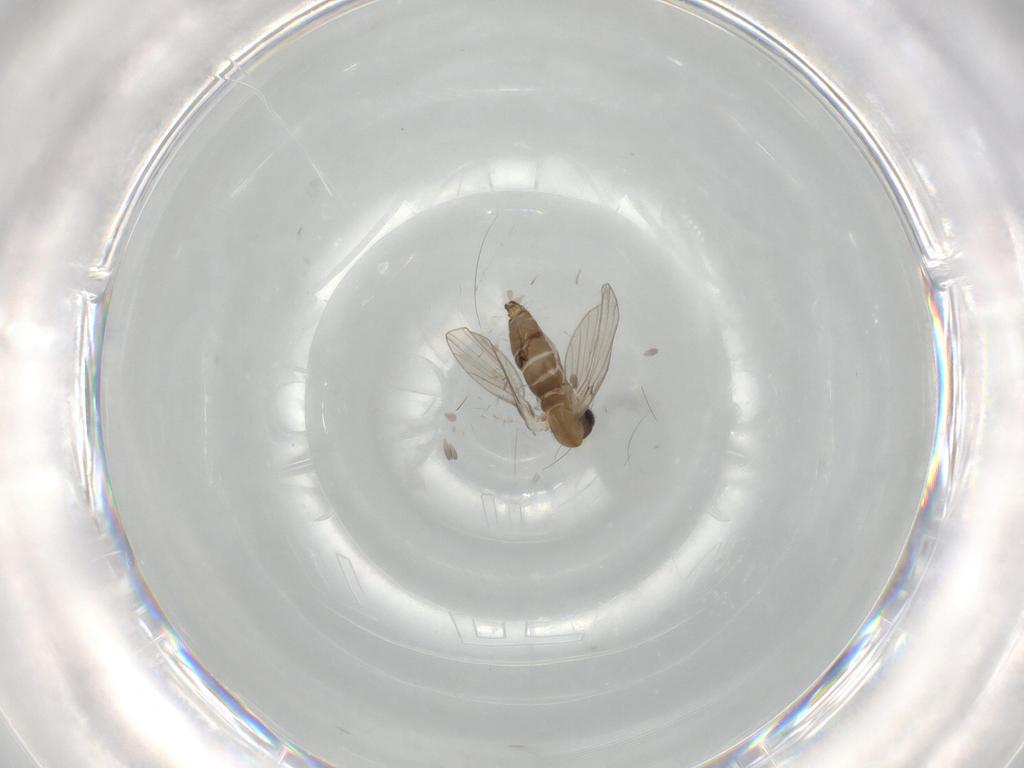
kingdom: Animalia
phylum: Arthropoda
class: Insecta
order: Diptera
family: Psychodidae
